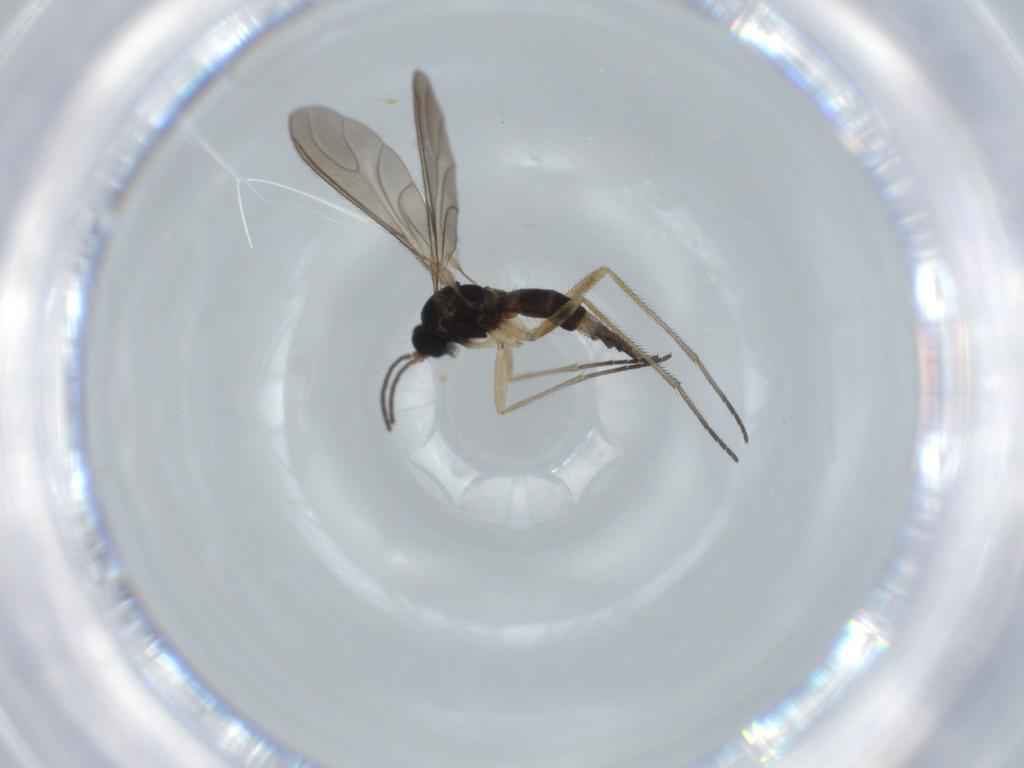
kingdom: Animalia
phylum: Arthropoda
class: Insecta
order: Diptera
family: Sciaridae
